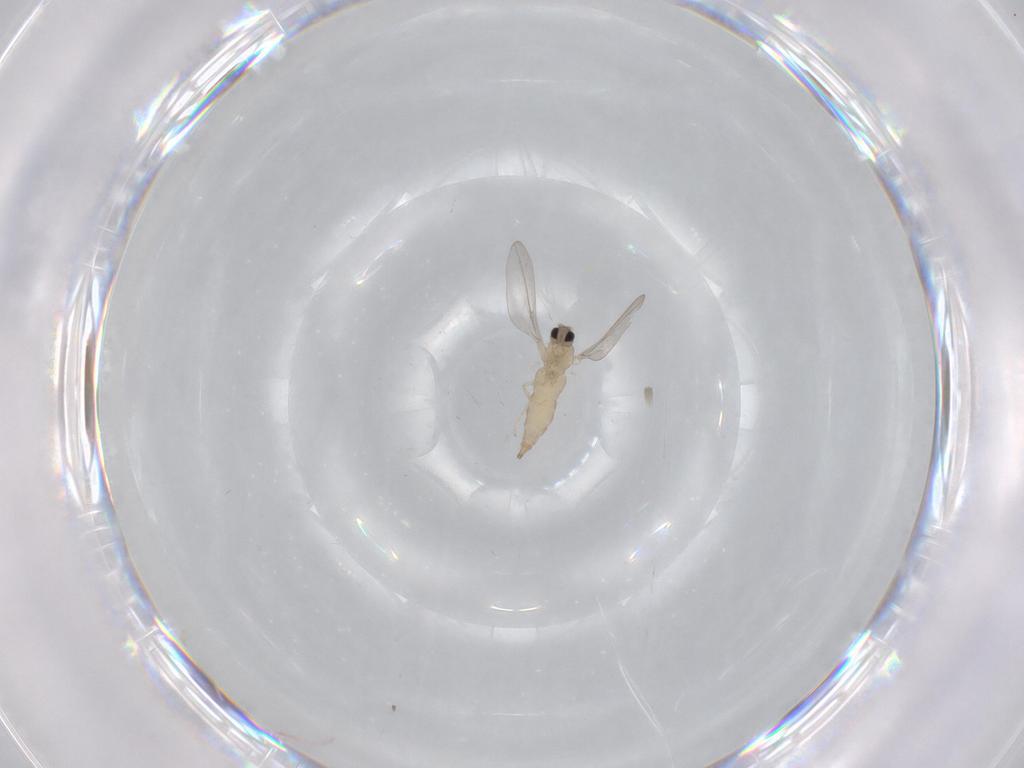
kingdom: Animalia
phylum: Arthropoda
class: Insecta
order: Diptera
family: Cecidomyiidae
